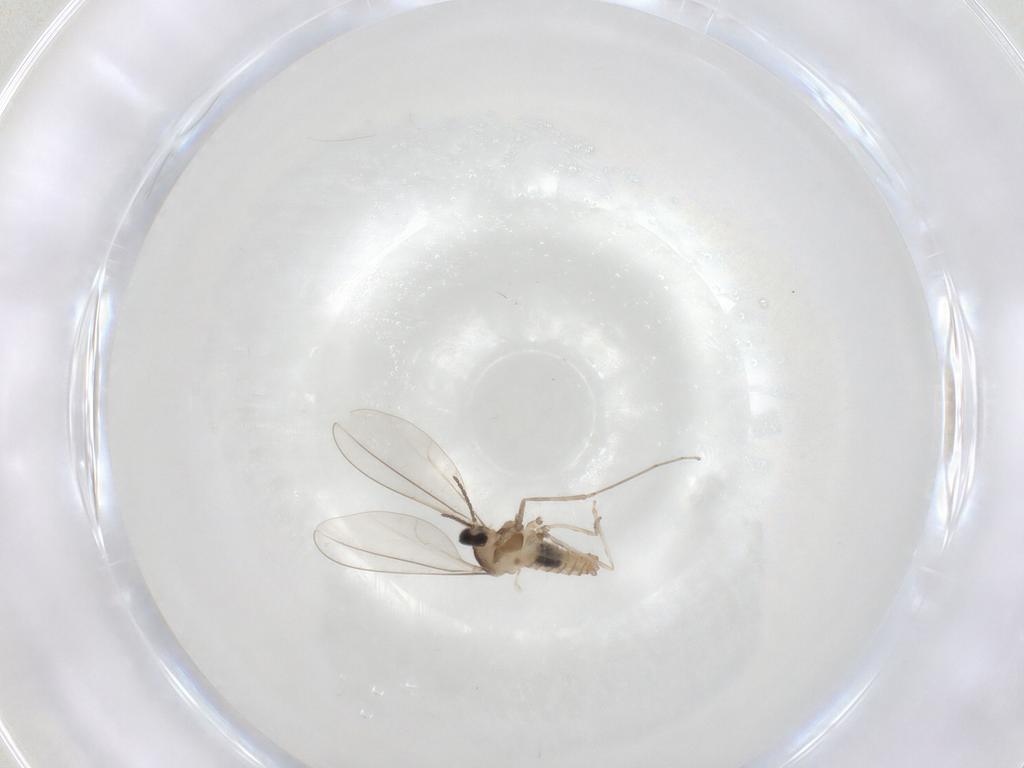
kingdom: Animalia
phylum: Arthropoda
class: Insecta
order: Diptera
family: Cecidomyiidae
